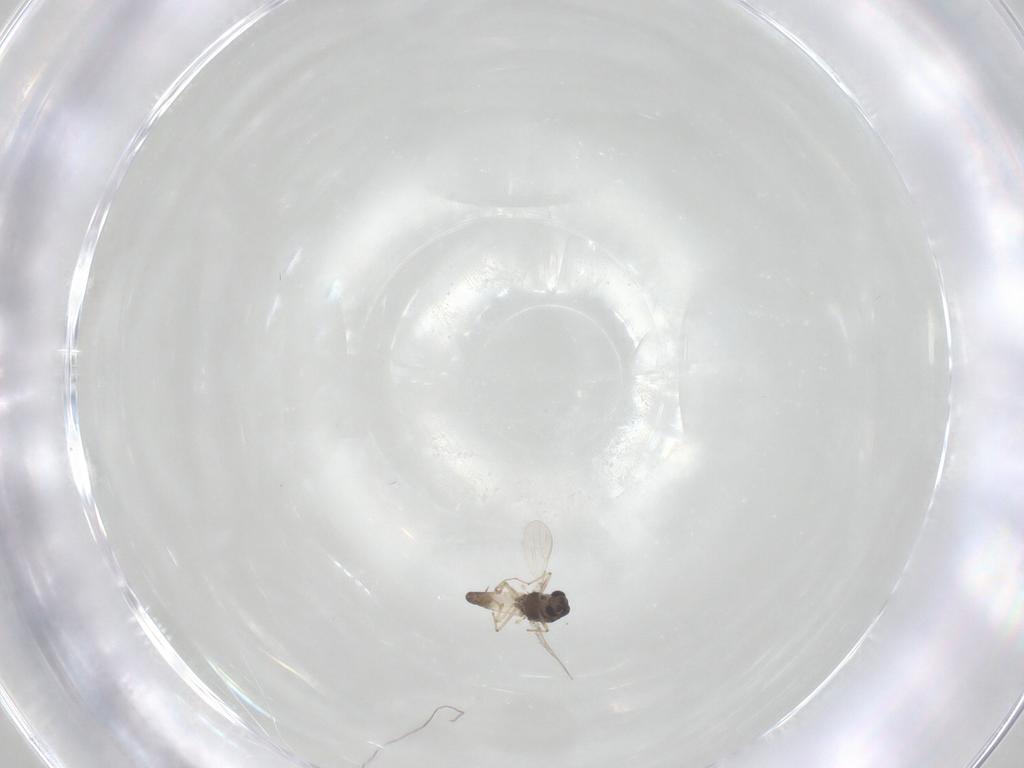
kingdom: Animalia
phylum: Arthropoda
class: Insecta
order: Diptera
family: Chironomidae
